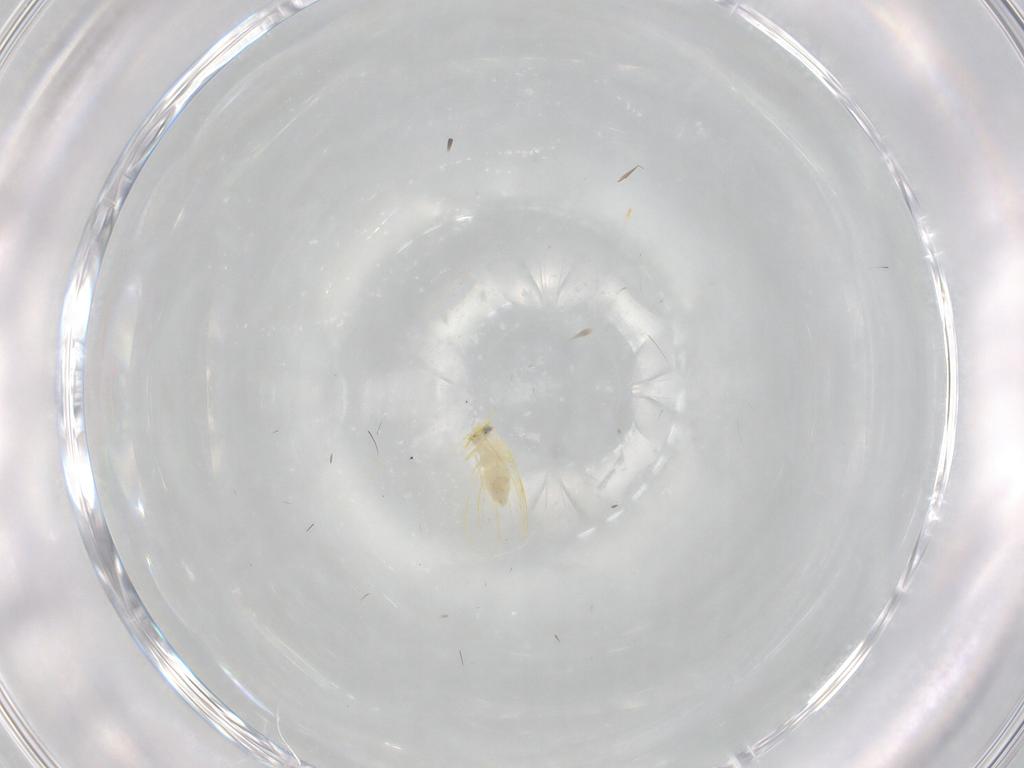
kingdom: Animalia
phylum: Arthropoda
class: Insecta
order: Hemiptera
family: Aleyrodidae
